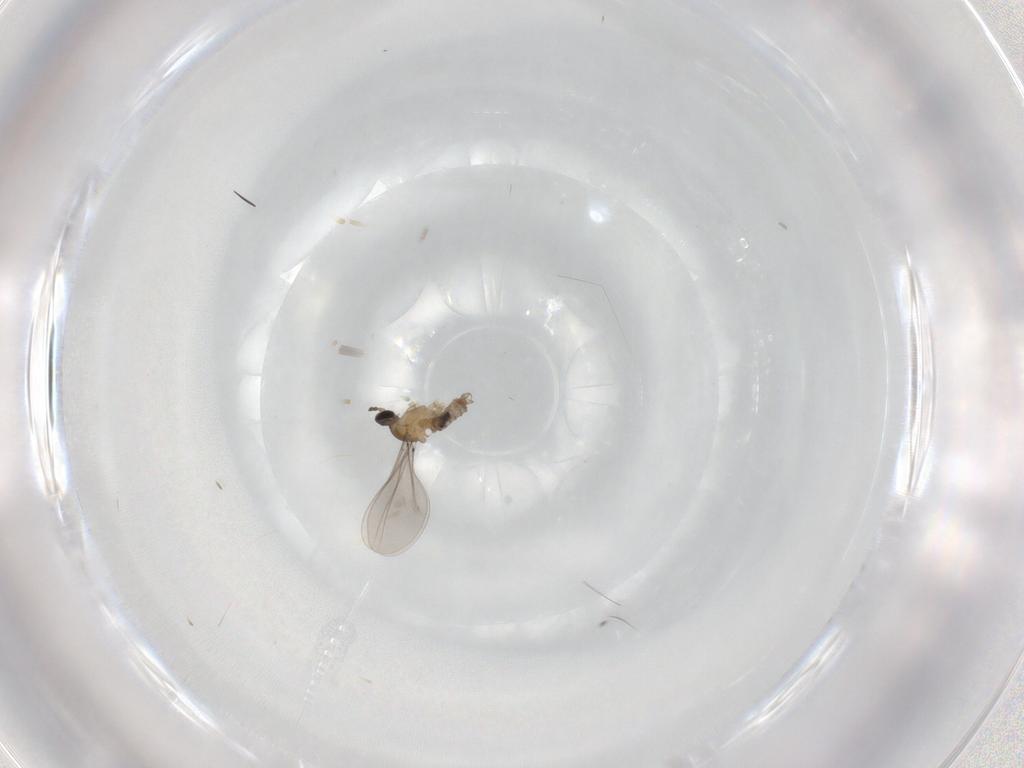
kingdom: Animalia
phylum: Arthropoda
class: Insecta
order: Diptera
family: Cecidomyiidae
